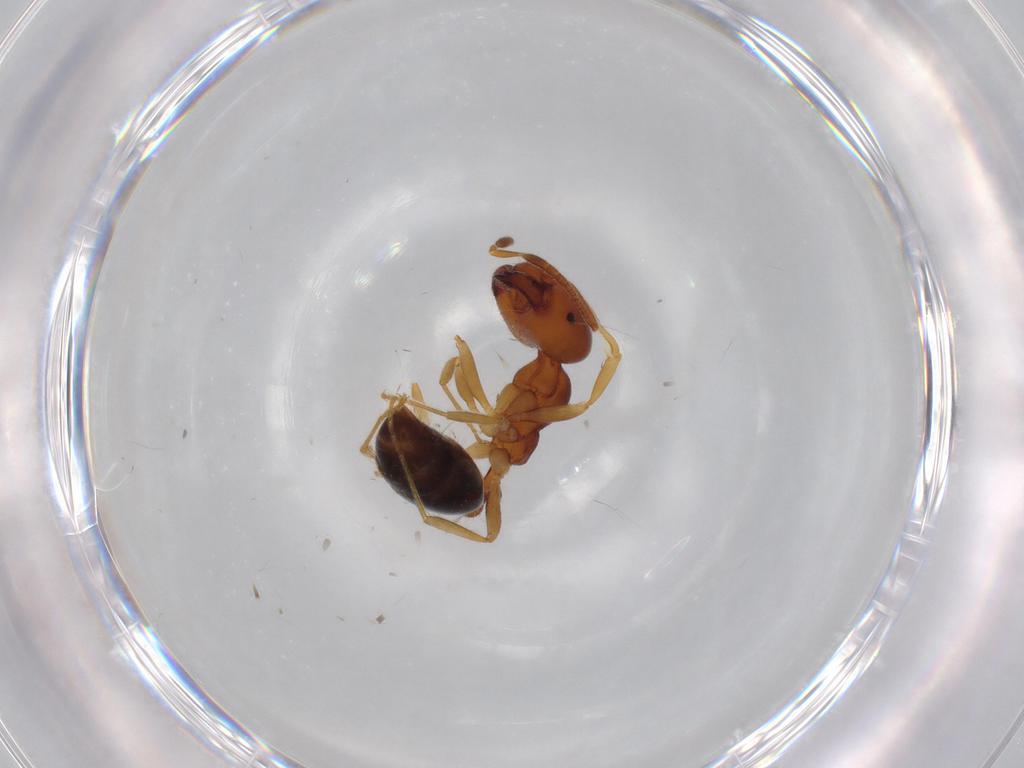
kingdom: Animalia
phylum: Arthropoda
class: Insecta
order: Hymenoptera
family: Formicidae
